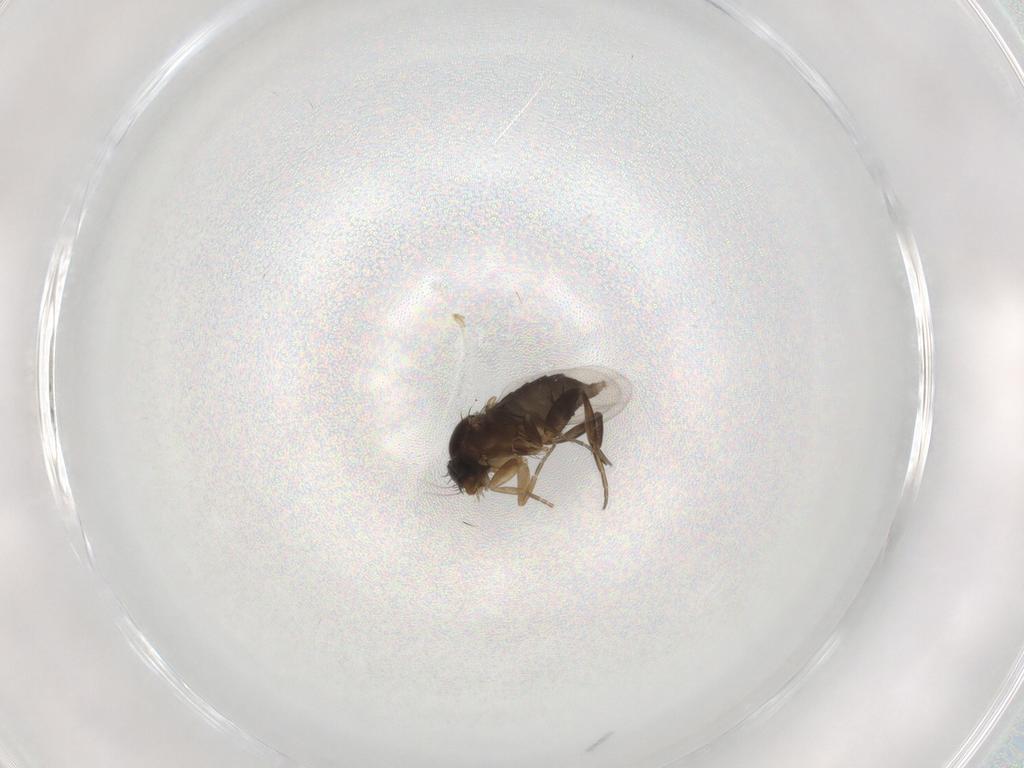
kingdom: Animalia
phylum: Arthropoda
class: Insecta
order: Diptera
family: Phoridae
